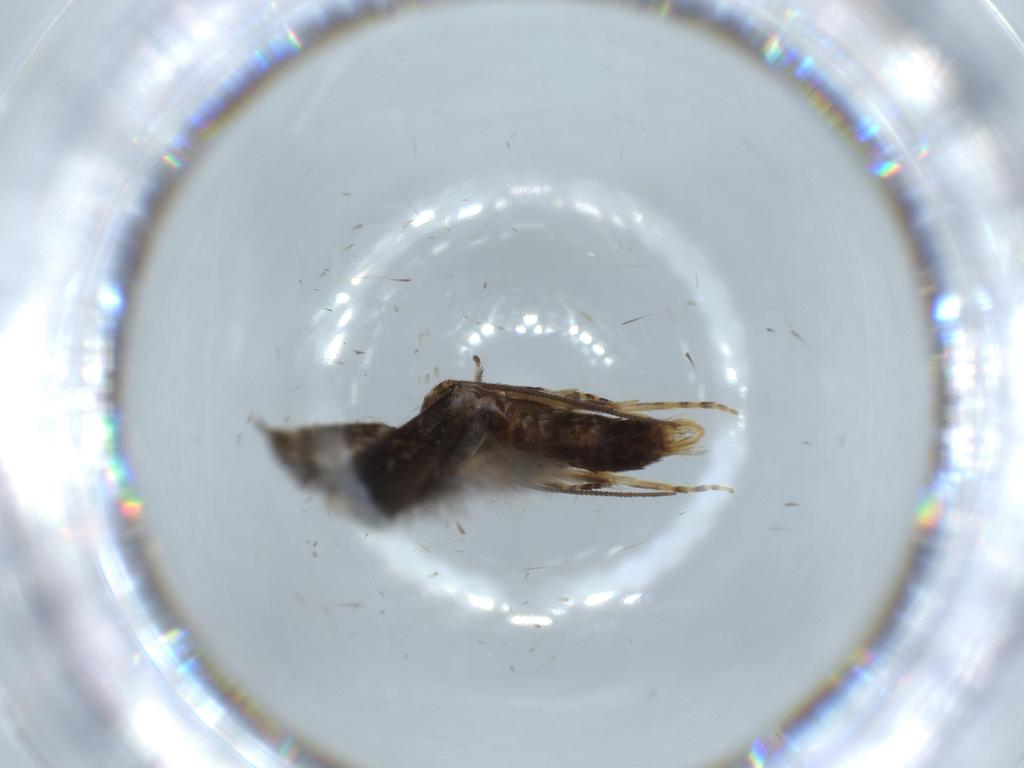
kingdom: Animalia
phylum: Arthropoda
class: Insecta
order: Lepidoptera
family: Elachistidae
